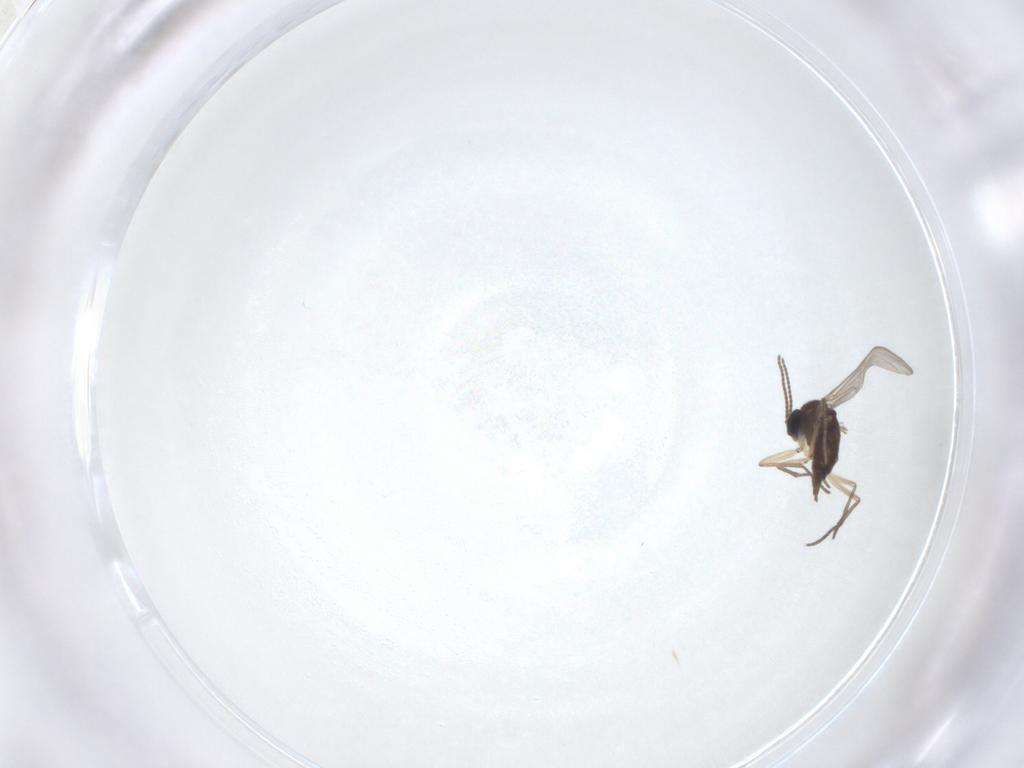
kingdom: Animalia
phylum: Arthropoda
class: Insecta
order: Diptera
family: Sciaridae
